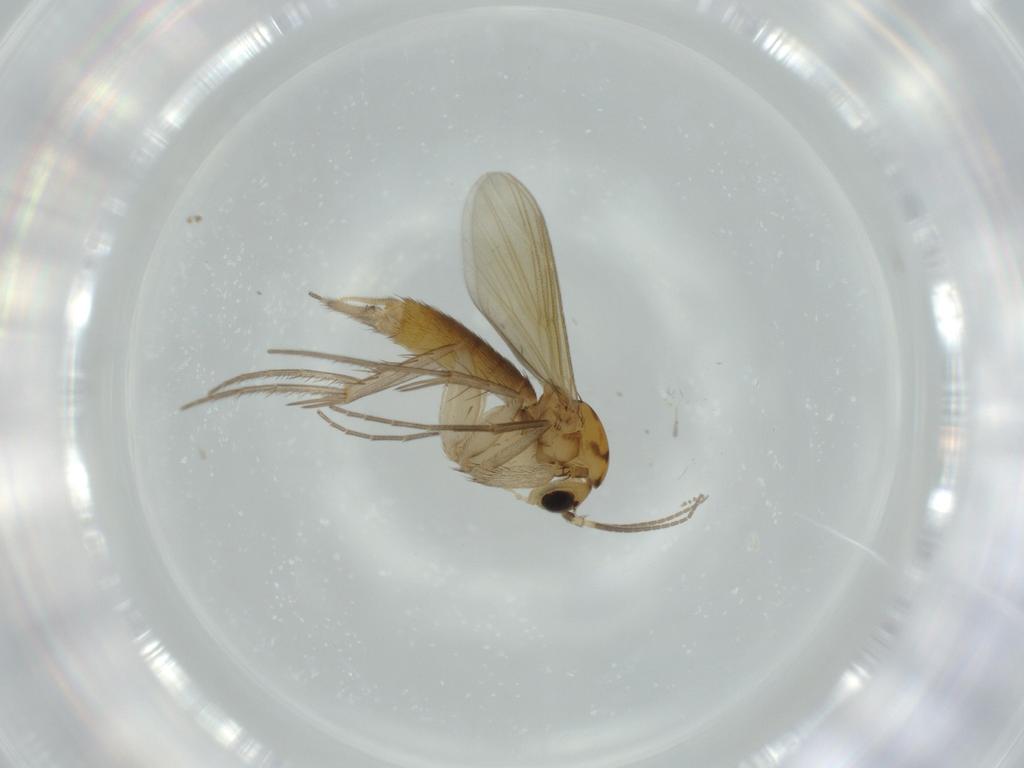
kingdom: Animalia
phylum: Arthropoda
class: Insecta
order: Diptera
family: Mycetophilidae
